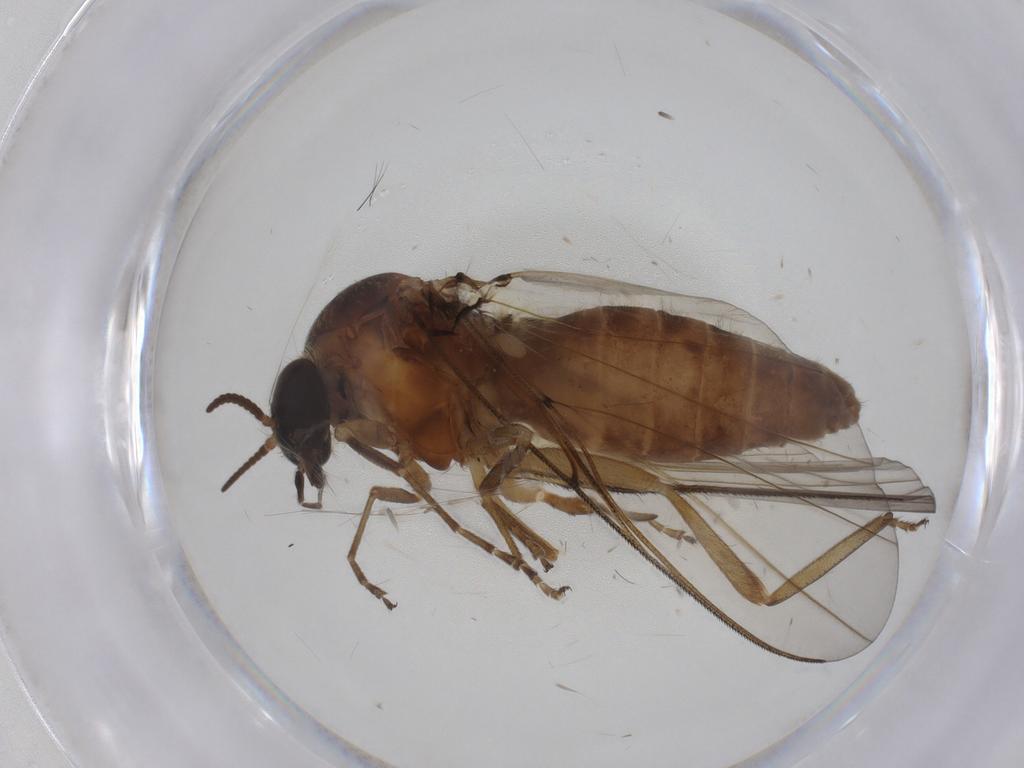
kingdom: Animalia
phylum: Arthropoda
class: Insecta
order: Diptera
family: Simuliidae
